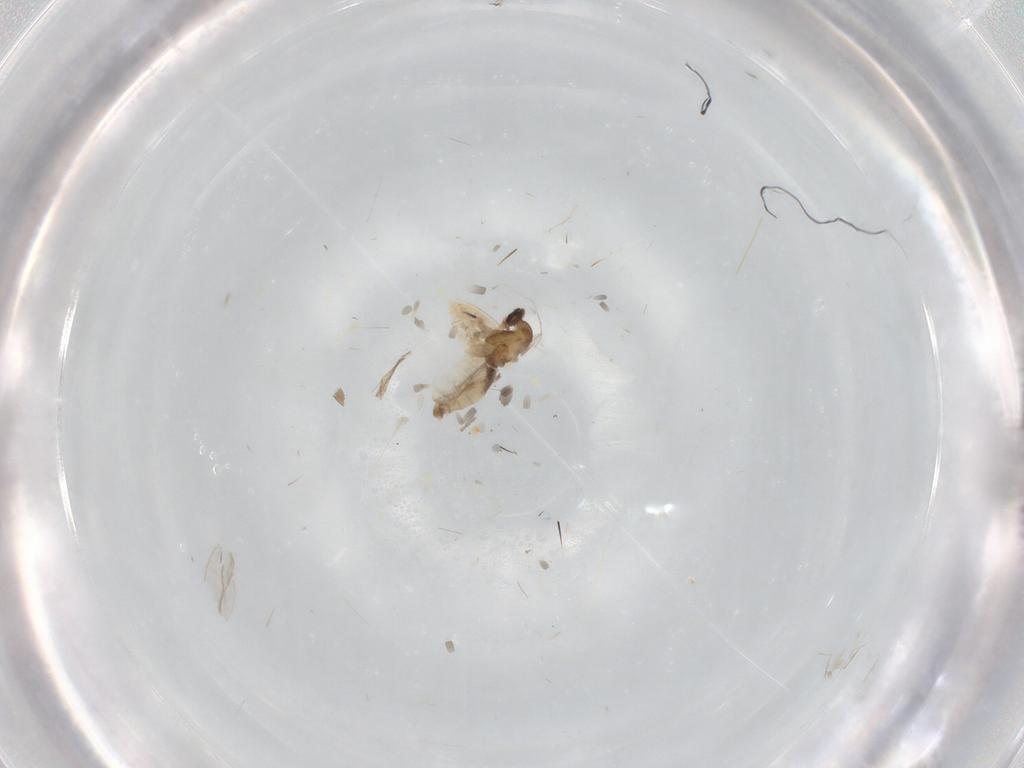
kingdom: Animalia
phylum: Arthropoda
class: Insecta
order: Diptera
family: Cecidomyiidae
